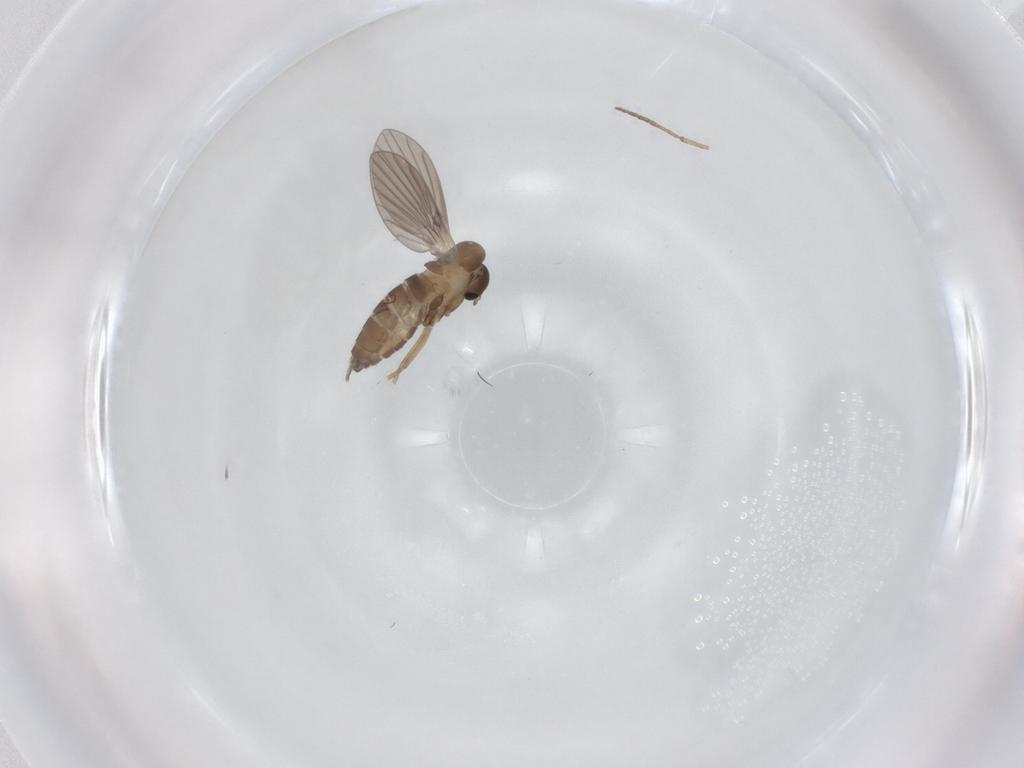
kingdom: Animalia
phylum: Arthropoda
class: Insecta
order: Diptera
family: Psychodidae
